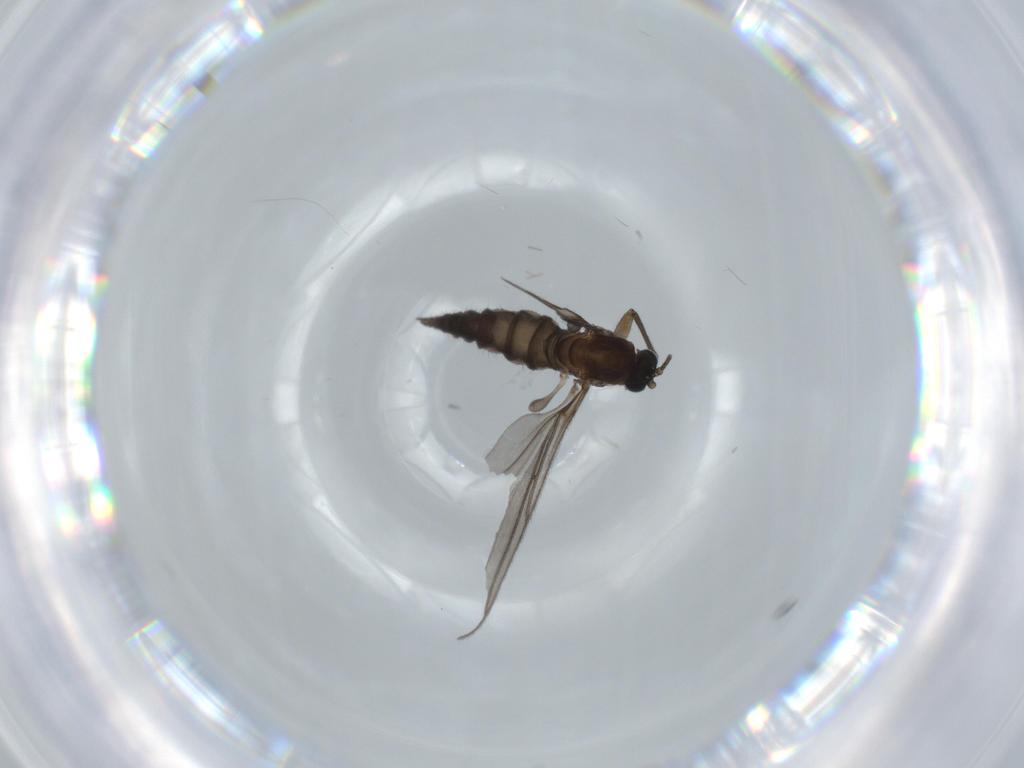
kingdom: Animalia
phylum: Arthropoda
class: Insecta
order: Diptera
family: Sciaridae
